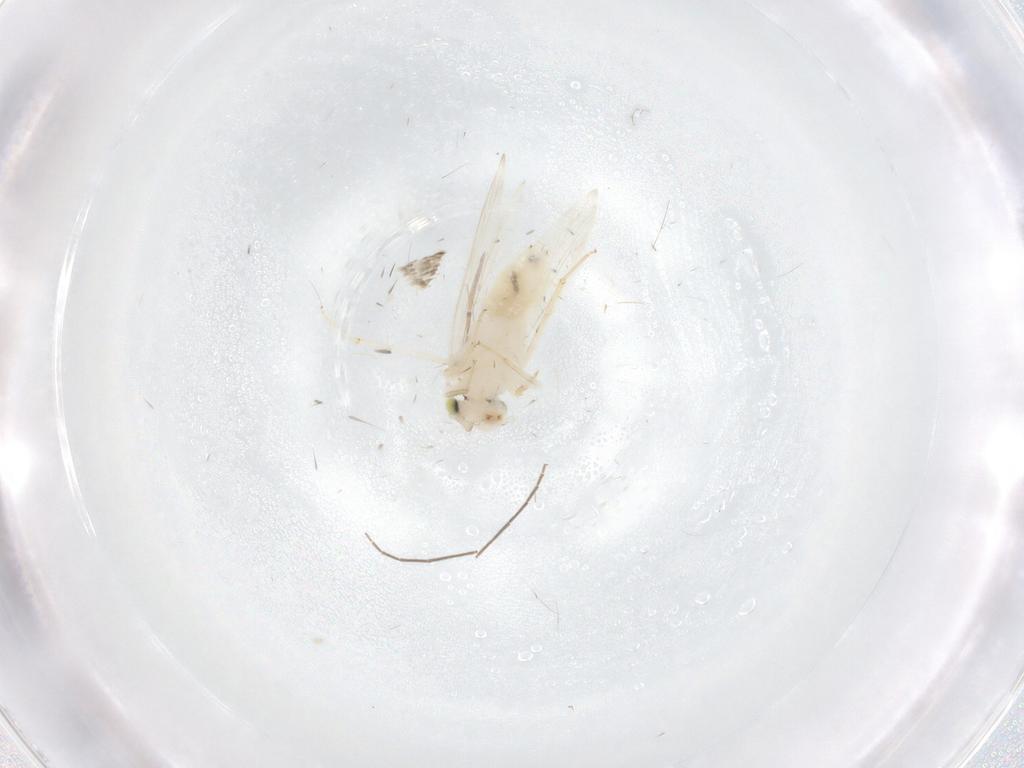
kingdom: Animalia
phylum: Arthropoda
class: Insecta
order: Psocodea
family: Lepidopsocidae
